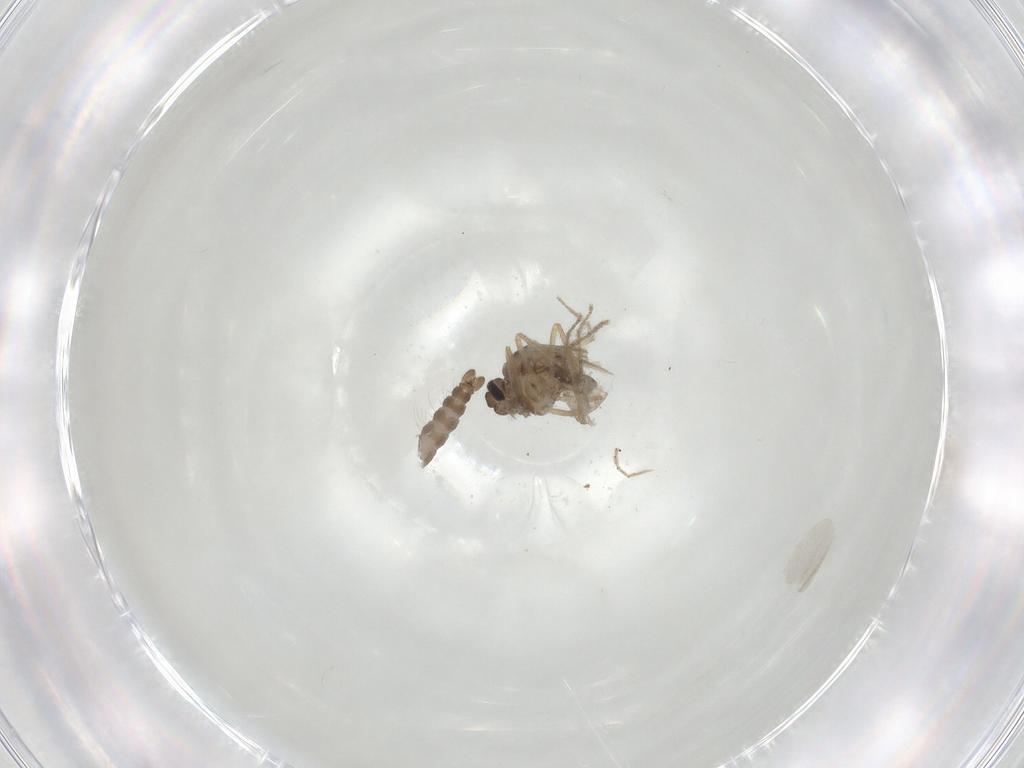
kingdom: Animalia
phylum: Arthropoda
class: Insecta
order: Diptera
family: Ceratopogonidae
